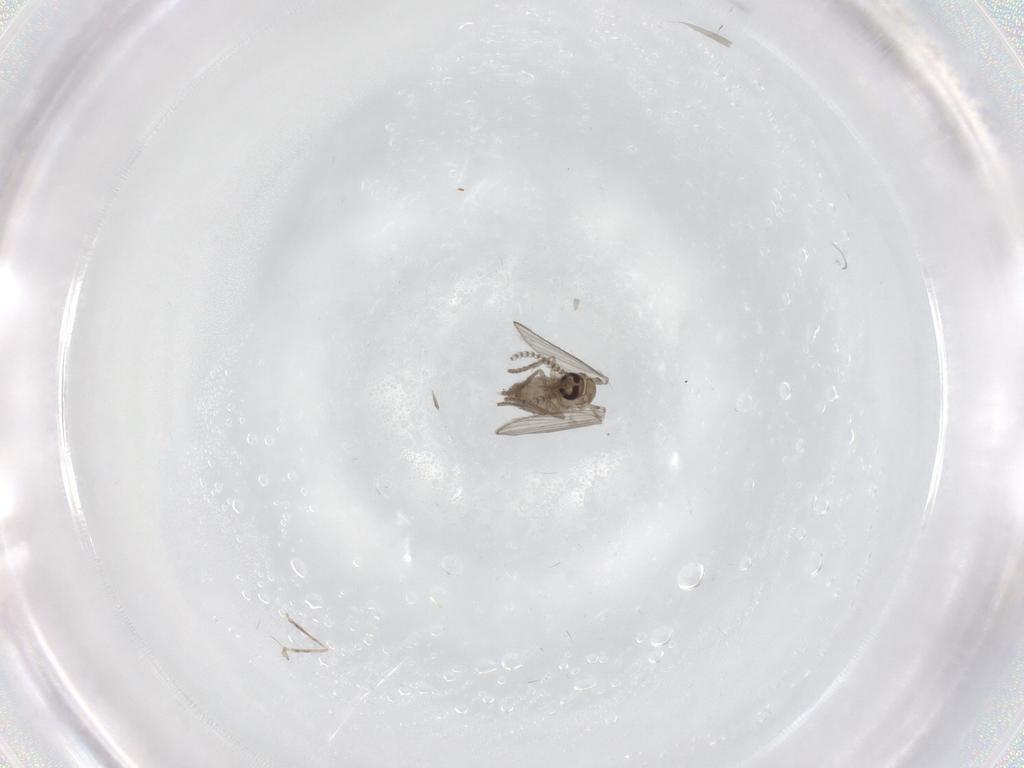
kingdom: Animalia
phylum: Arthropoda
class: Insecta
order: Diptera
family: Psychodidae
